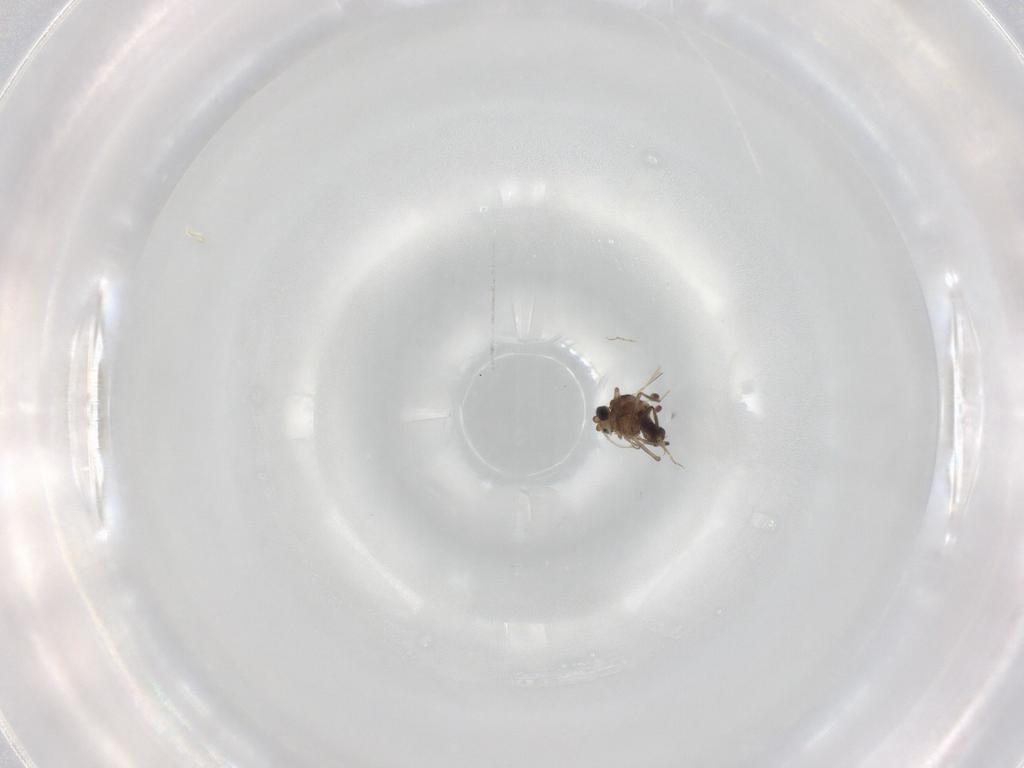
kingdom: Animalia
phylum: Arthropoda
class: Insecta
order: Diptera
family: Ceratopogonidae
